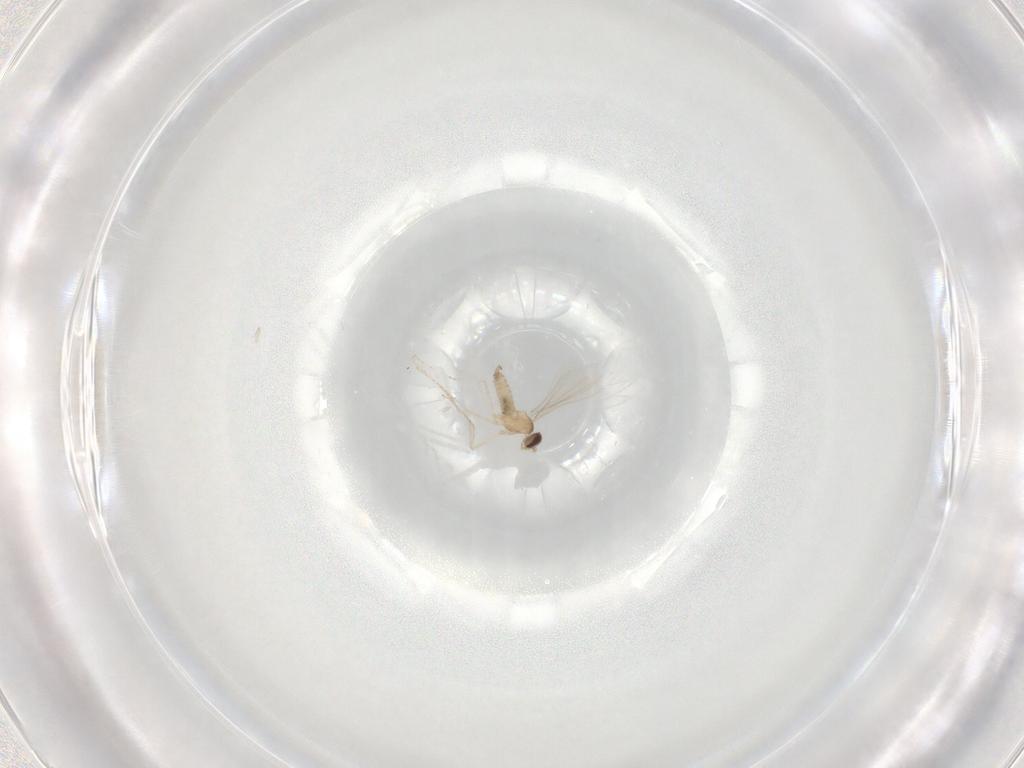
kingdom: Animalia
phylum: Arthropoda
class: Insecta
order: Diptera
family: Cecidomyiidae
